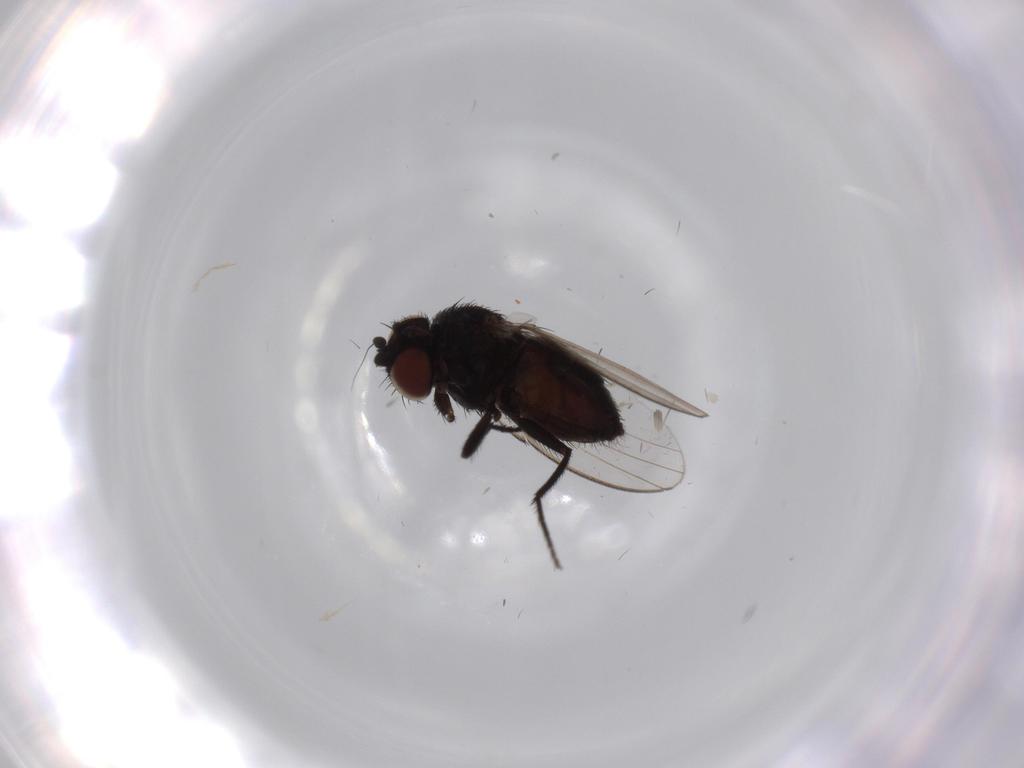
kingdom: Animalia
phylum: Arthropoda
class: Insecta
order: Diptera
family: Milichiidae
